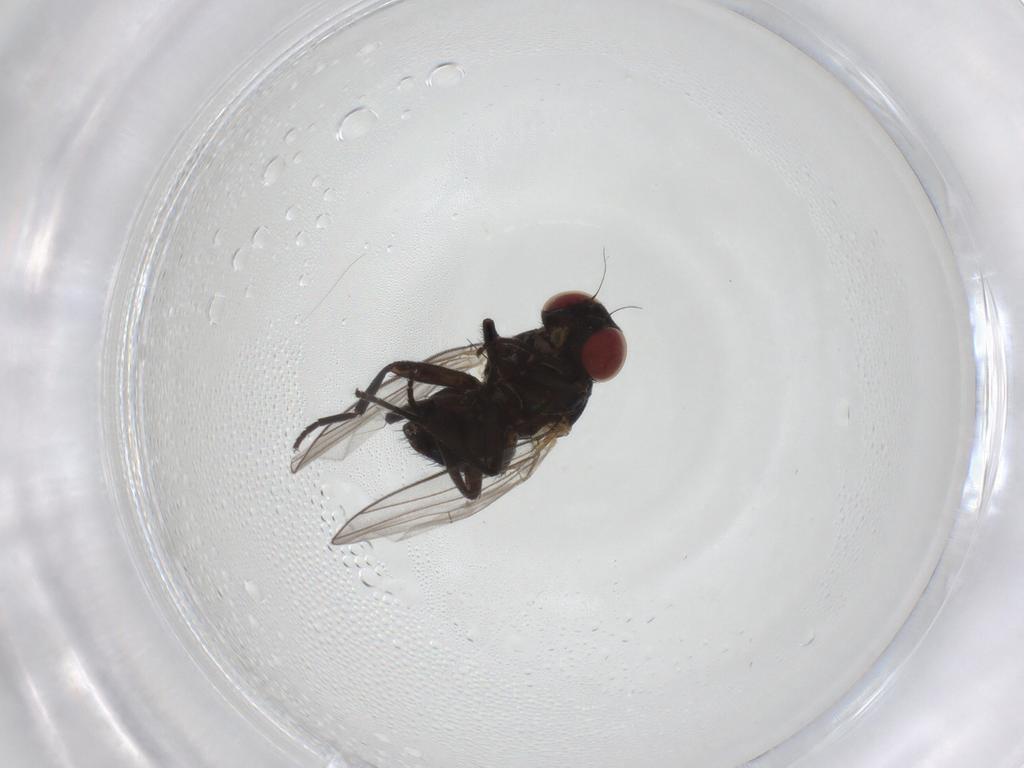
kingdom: Animalia
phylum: Arthropoda
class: Insecta
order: Diptera
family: Agromyzidae
